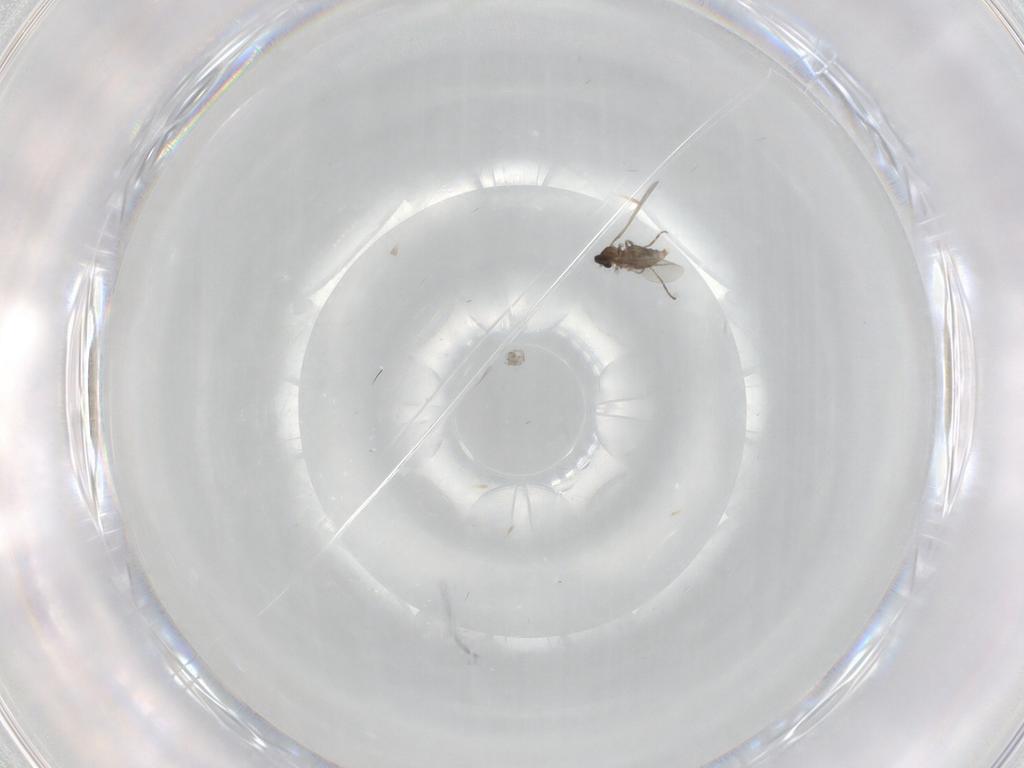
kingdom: Animalia
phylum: Arthropoda
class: Insecta
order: Diptera
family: Cecidomyiidae
